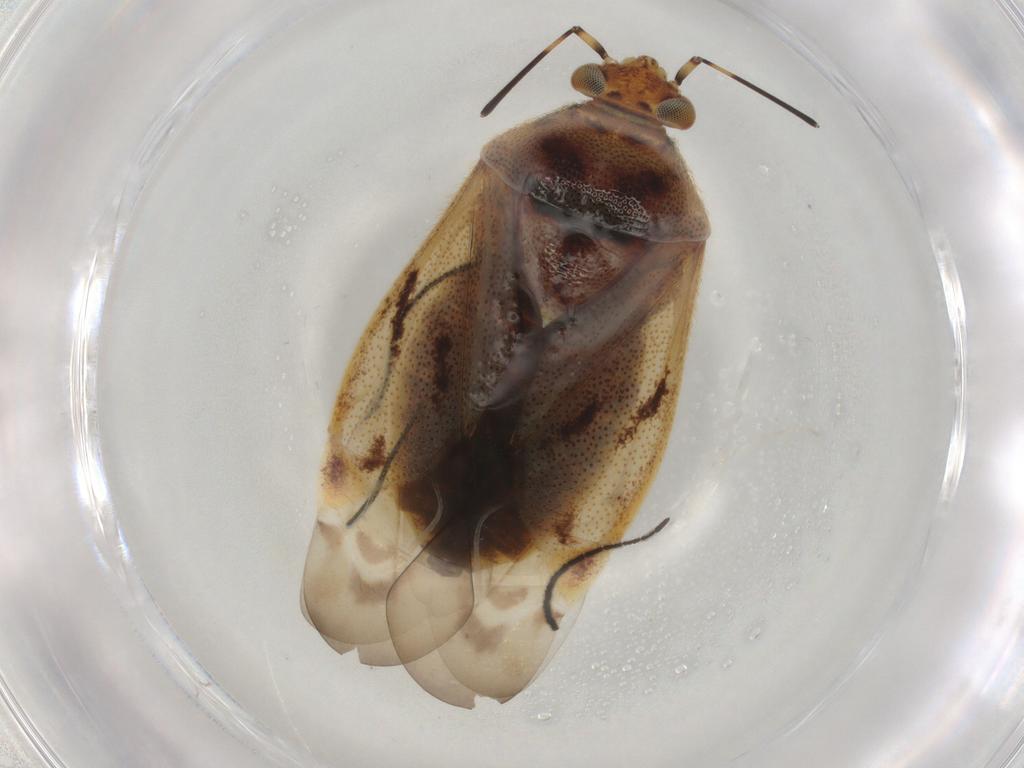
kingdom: Animalia
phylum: Arthropoda
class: Insecta
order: Hemiptera
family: Miridae
